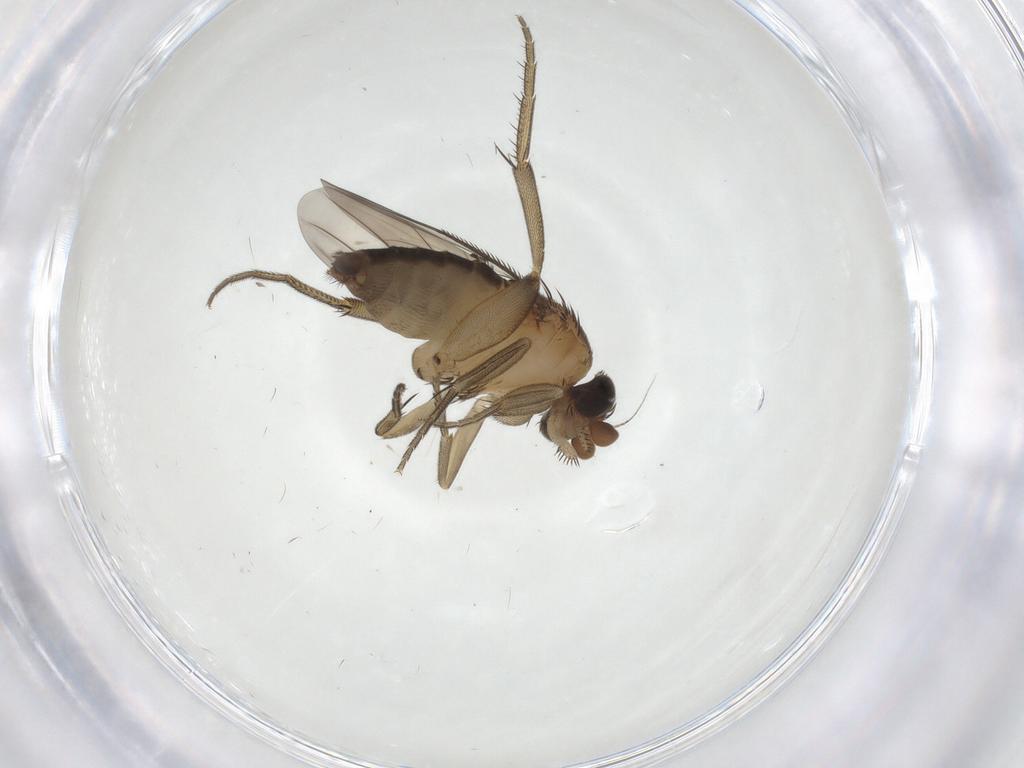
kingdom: Animalia
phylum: Arthropoda
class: Insecta
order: Diptera
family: Phoridae
